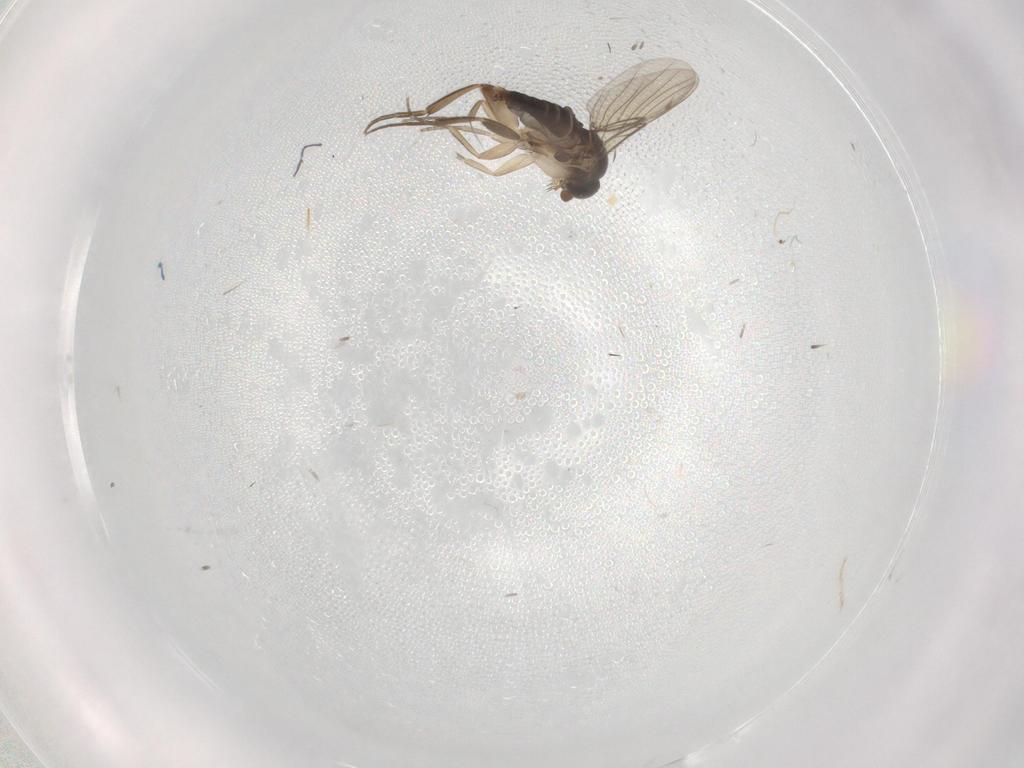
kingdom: Animalia
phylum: Arthropoda
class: Insecta
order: Diptera
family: Phoridae
